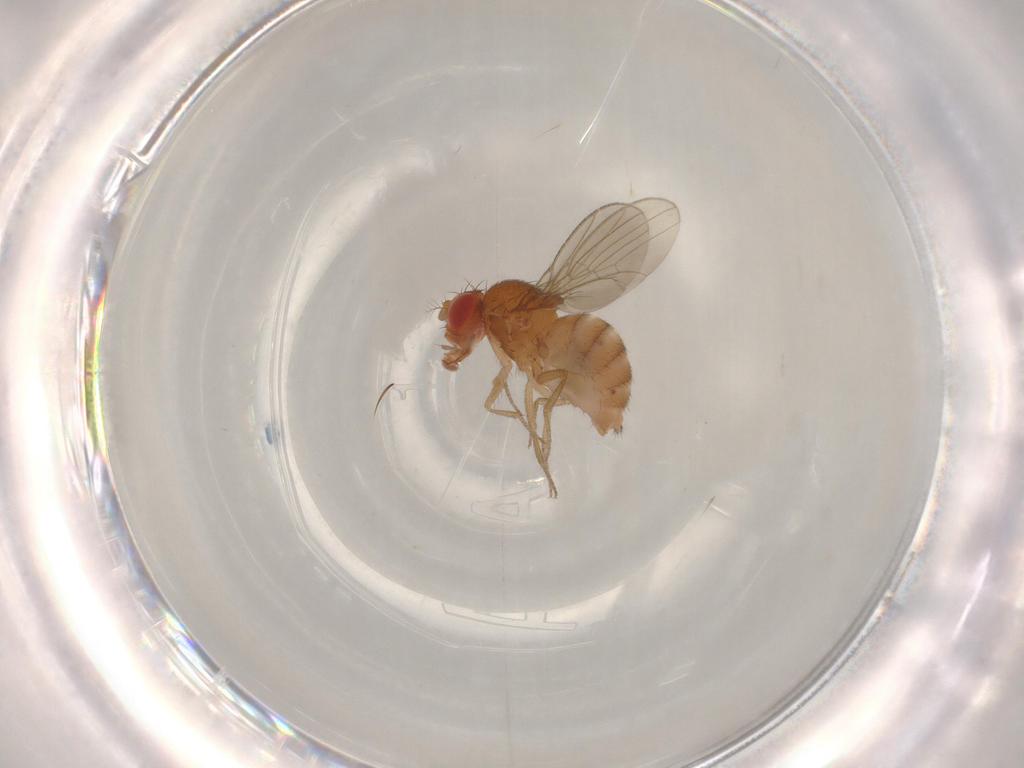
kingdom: Animalia
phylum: Arthropoda
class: Insecta
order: Diptera
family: Drosophilidae
